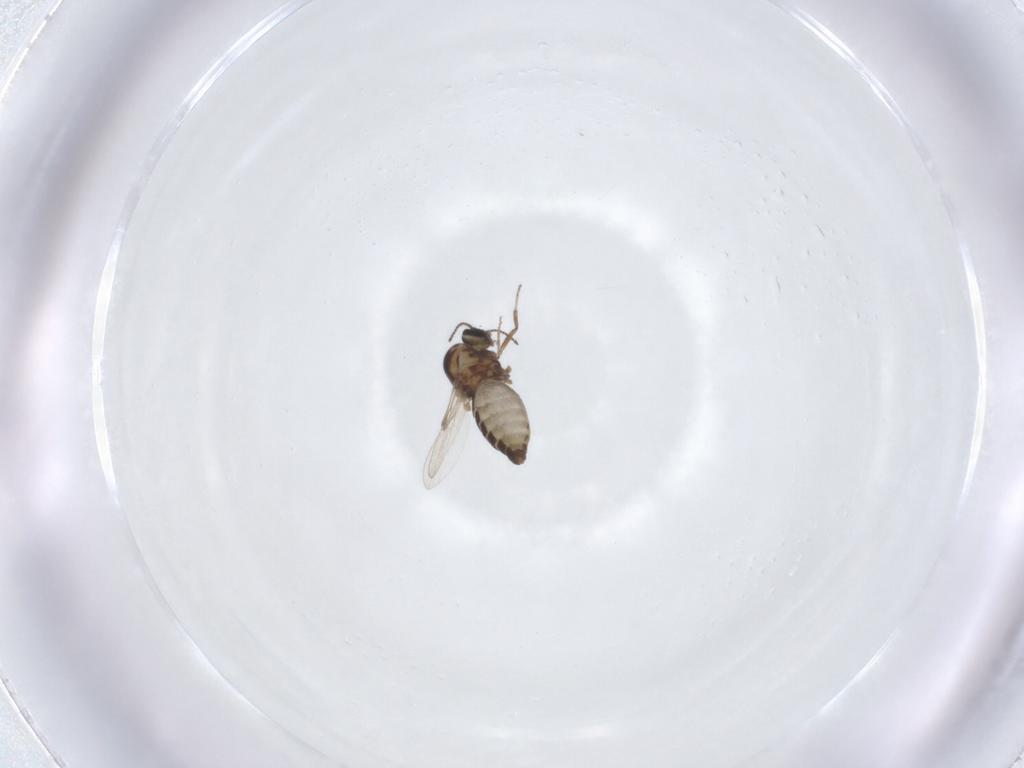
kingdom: Animalia
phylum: Arthropoda
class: Insecta
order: Diptera
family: Ceratopogonidae
